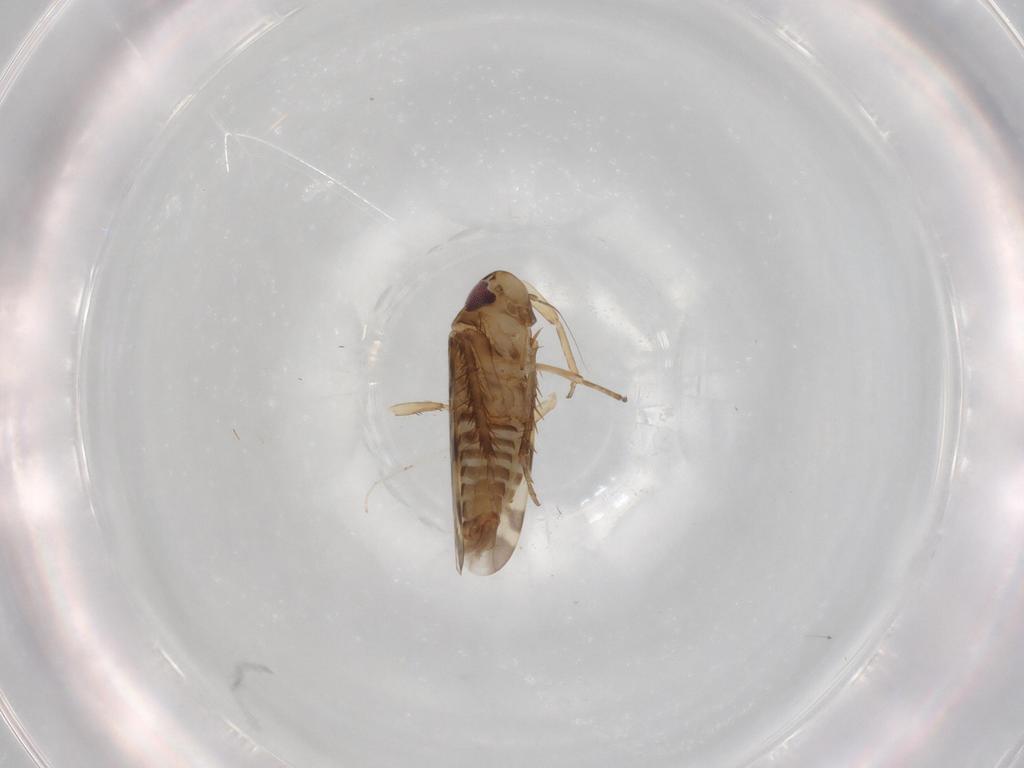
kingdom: Animalia
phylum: Arthropoda
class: Insecta
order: Hemiptera
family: Cicadellidae
